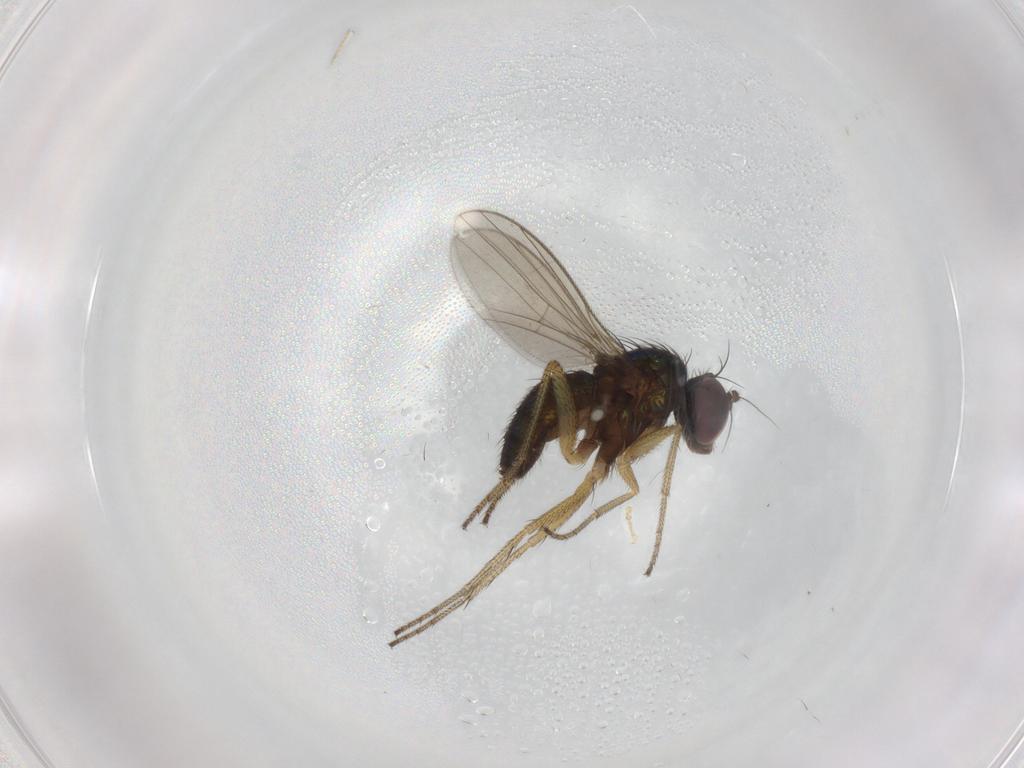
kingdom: Animalia
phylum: Arthropoda
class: Insecta
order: Diptera
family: Dolichopodidae
